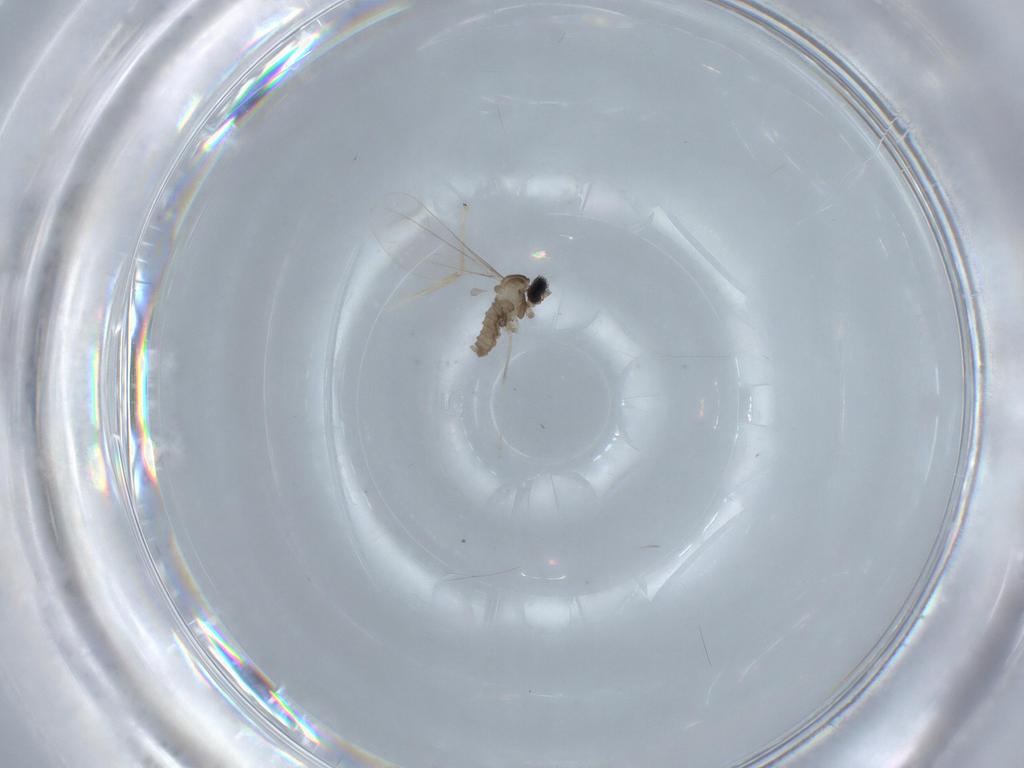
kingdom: Animalia
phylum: Arthropoda
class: Insecta
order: Diptera
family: Cecidomyiidae
